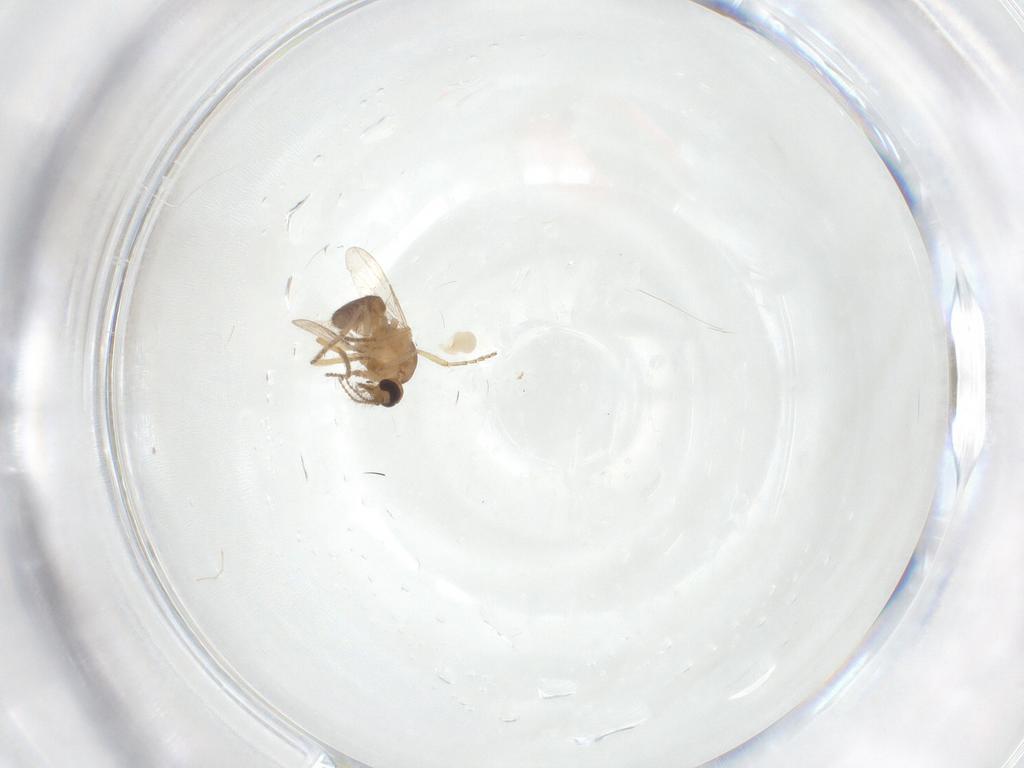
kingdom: Animalia
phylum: Arthropoda
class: Insecta
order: Diptera
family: Ceratopogonidae
